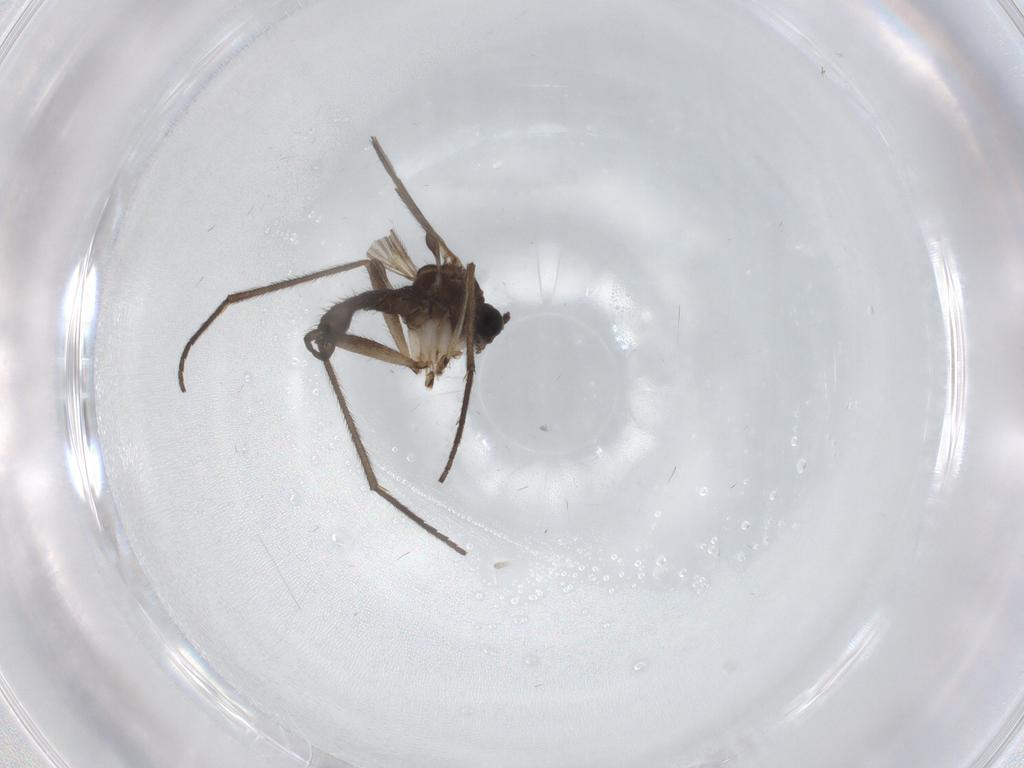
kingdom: Animalia
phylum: Arthropoda
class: Insecta
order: Diptera
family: Sciaridae
